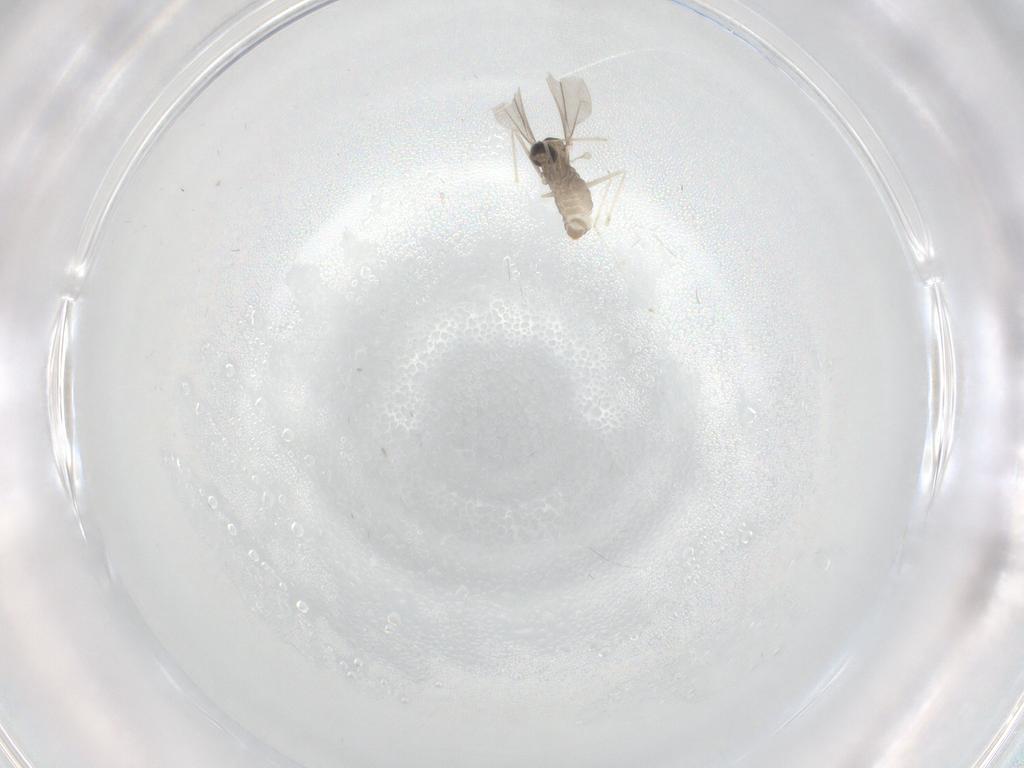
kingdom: Animalia
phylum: Arthropoda
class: Insecta
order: Diptera
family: Cecidomyiidae
